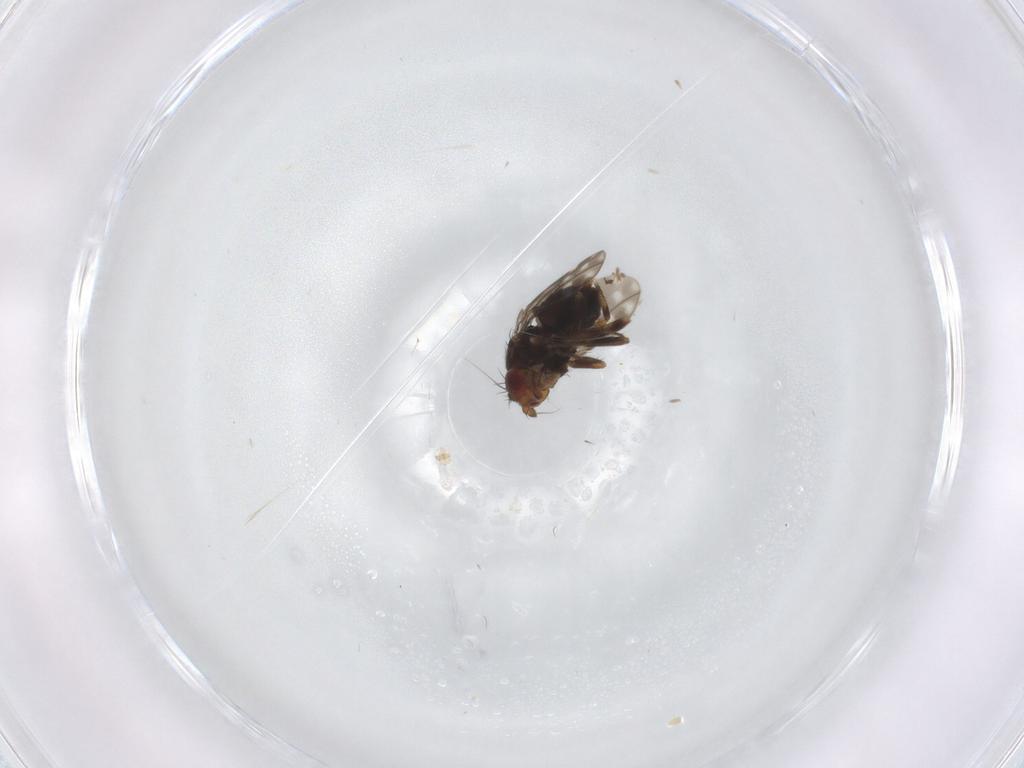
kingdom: Animalia
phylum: Arthropoda
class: Insecta
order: Diptera
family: Sphaeroceridae
